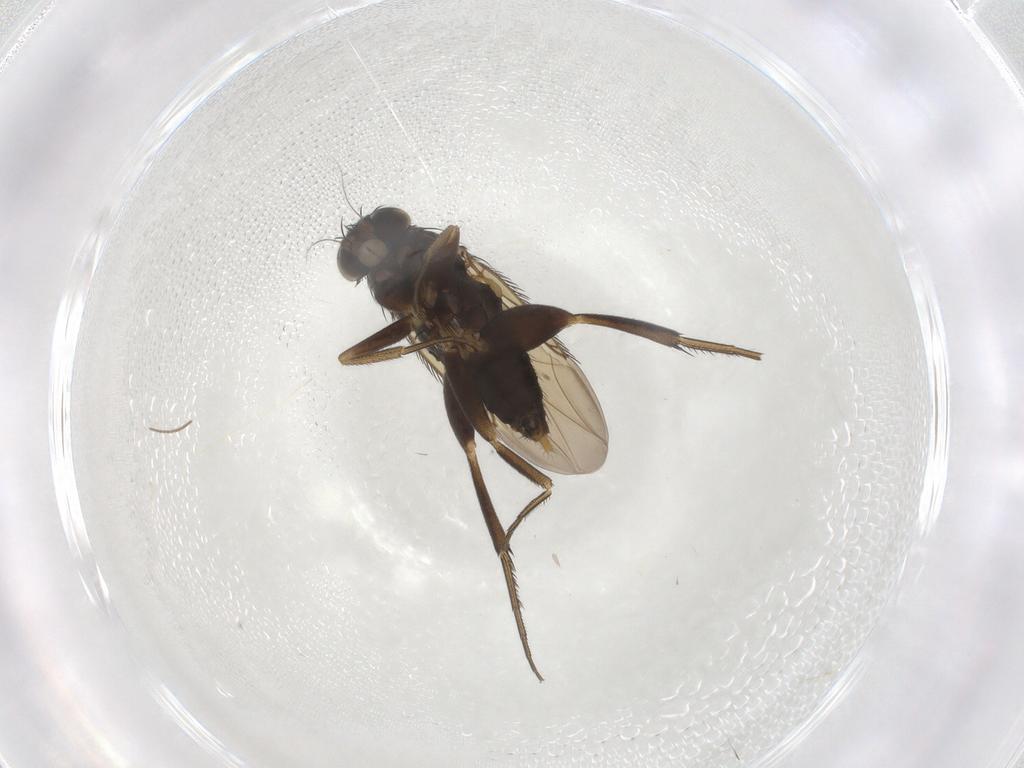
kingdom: Animalia
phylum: Arthropoda
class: Insecta
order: Diptera
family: Phoridae
